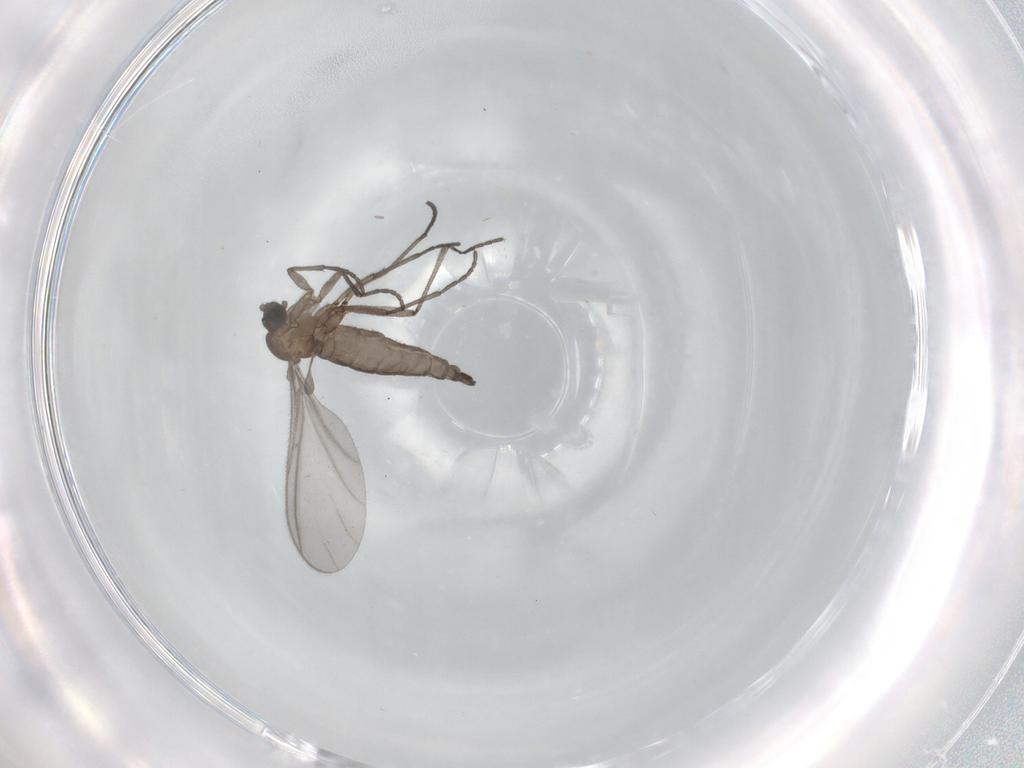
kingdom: Animalia
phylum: Arthropoda
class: Insecta
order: Diptera
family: Sciaridae
